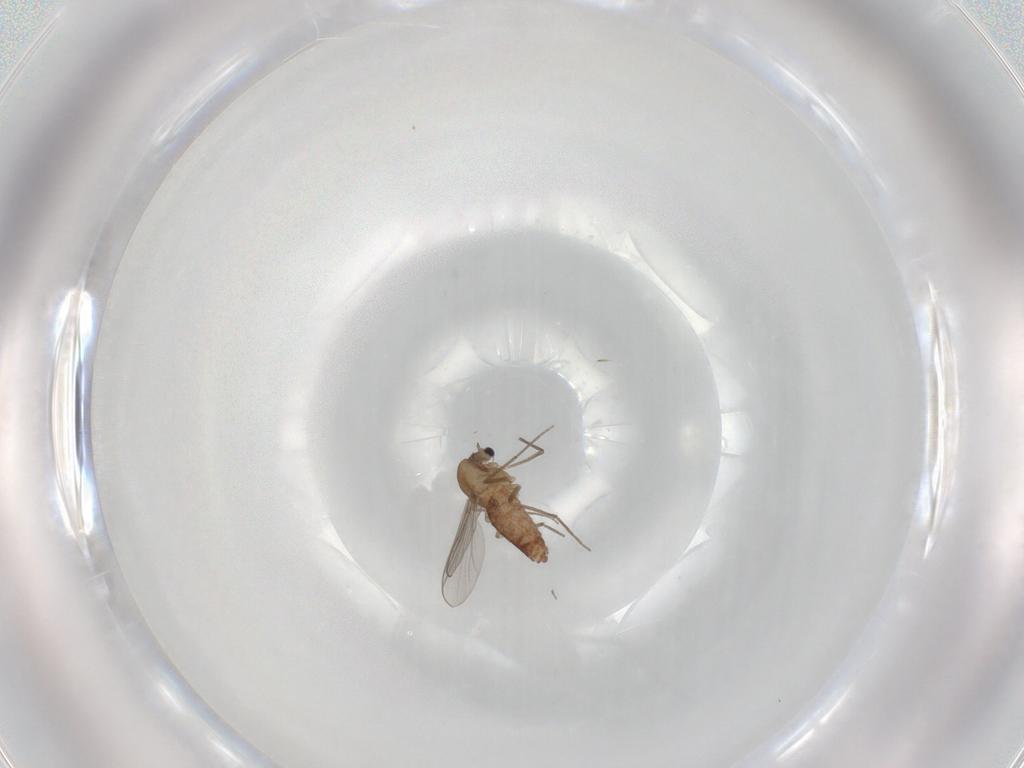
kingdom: Animalia
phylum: Arthropoda
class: Insecta
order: Diptera
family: Chironomidae
